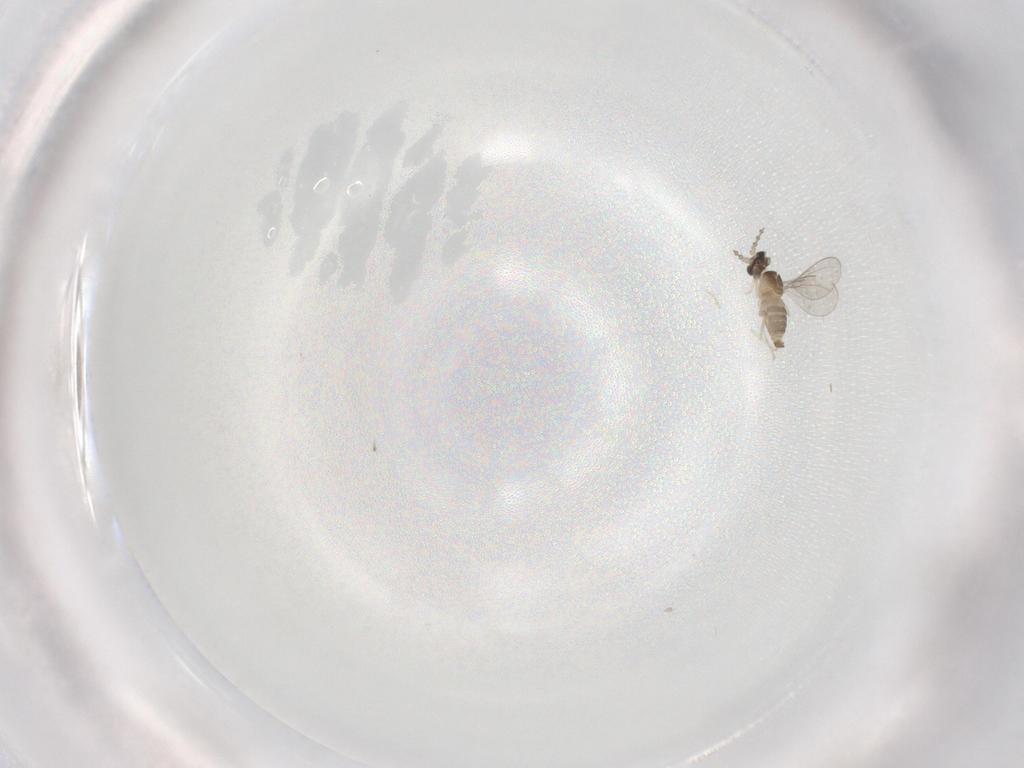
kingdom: Animalia
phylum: Arthropoda
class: Insecta
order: Diptera
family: Cecidomyiidae
